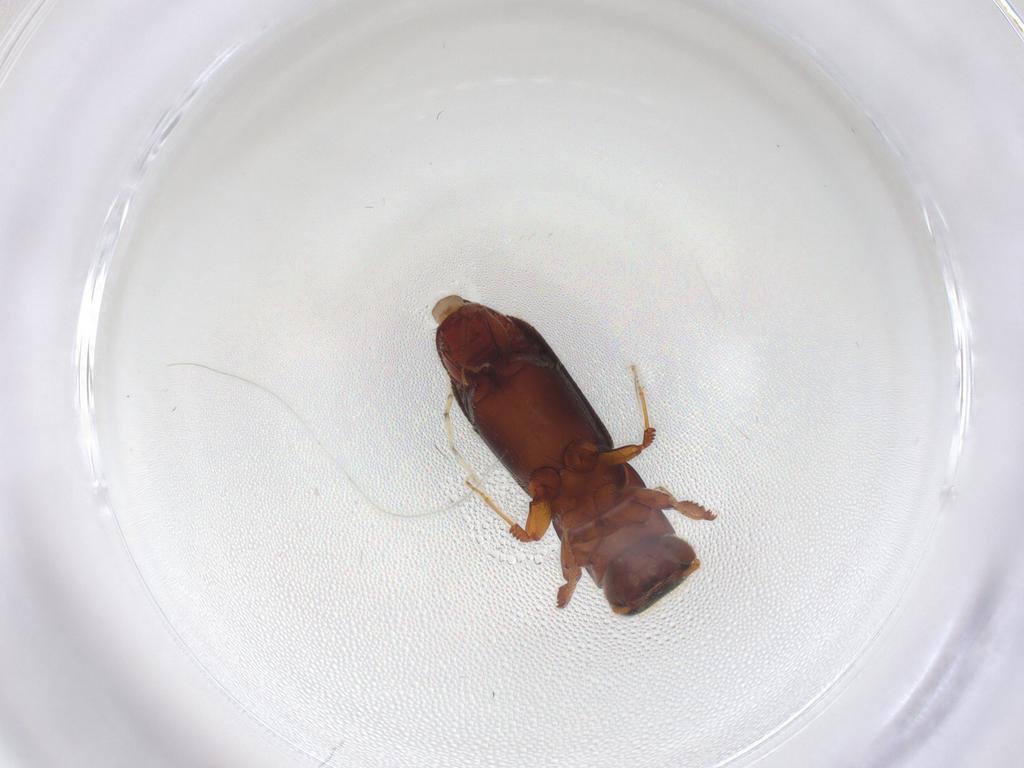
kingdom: Animalia
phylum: Arthropoda
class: Insecta
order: Coleoptera
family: Curculionidae
